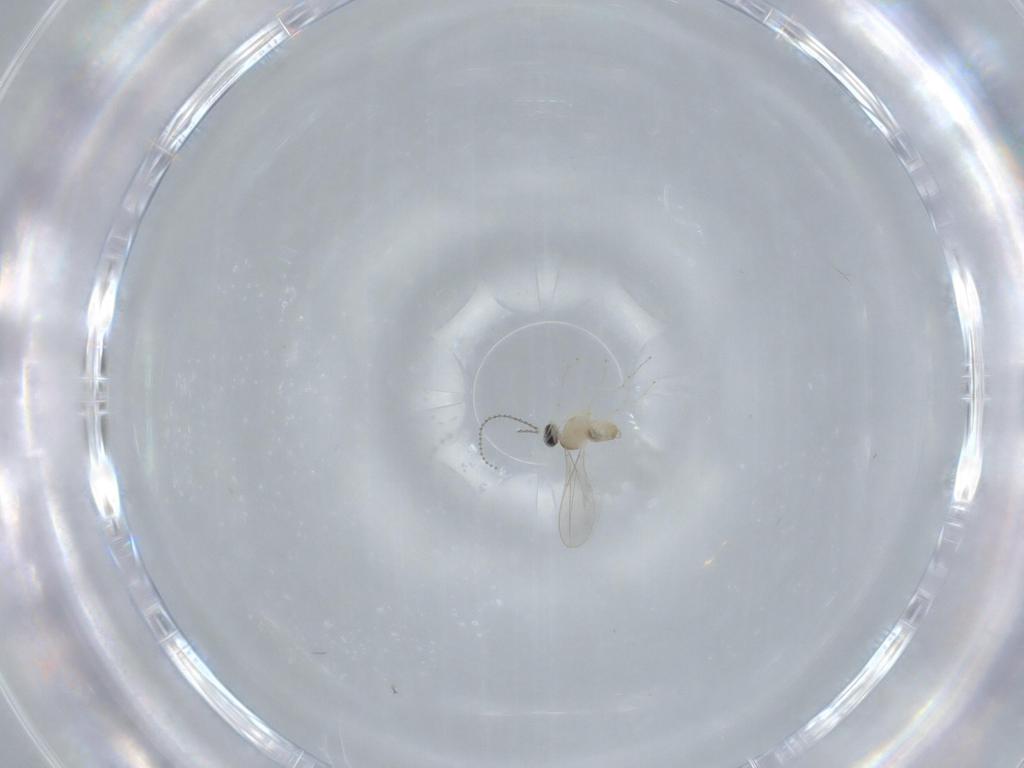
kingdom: Animalia
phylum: Arthropoda
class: Insecta
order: Diptera
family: Cecidomyiidae
